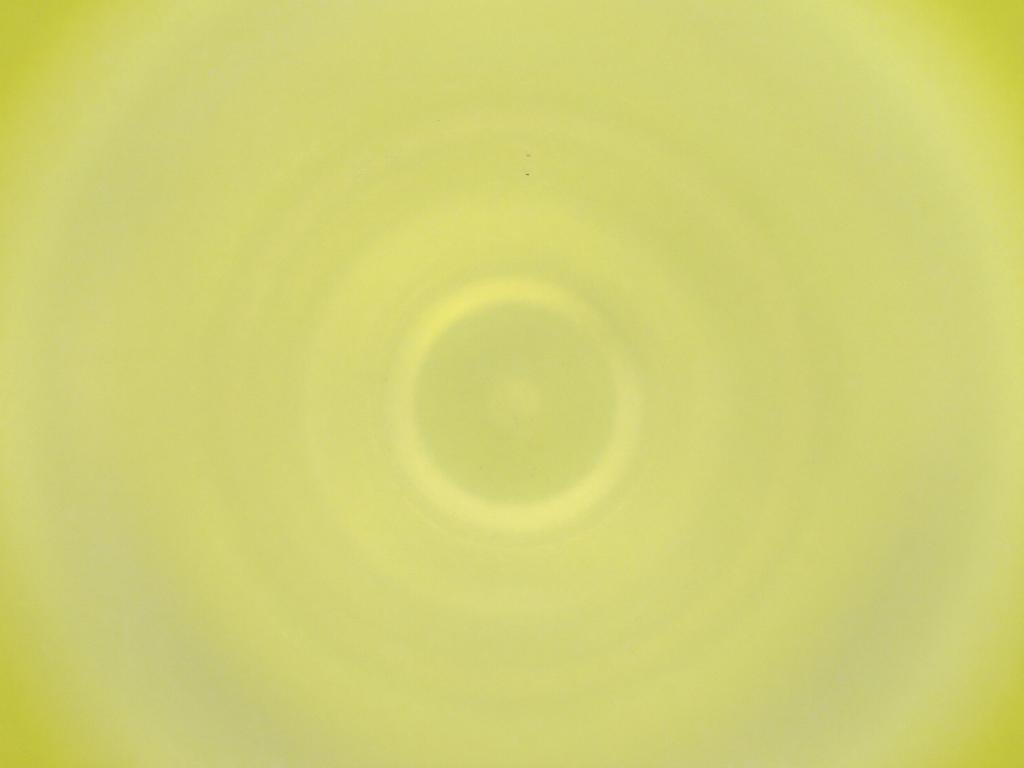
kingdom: Animalia
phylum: Arthropoda
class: Insecta
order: Diptera
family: Cecidomyiidae
